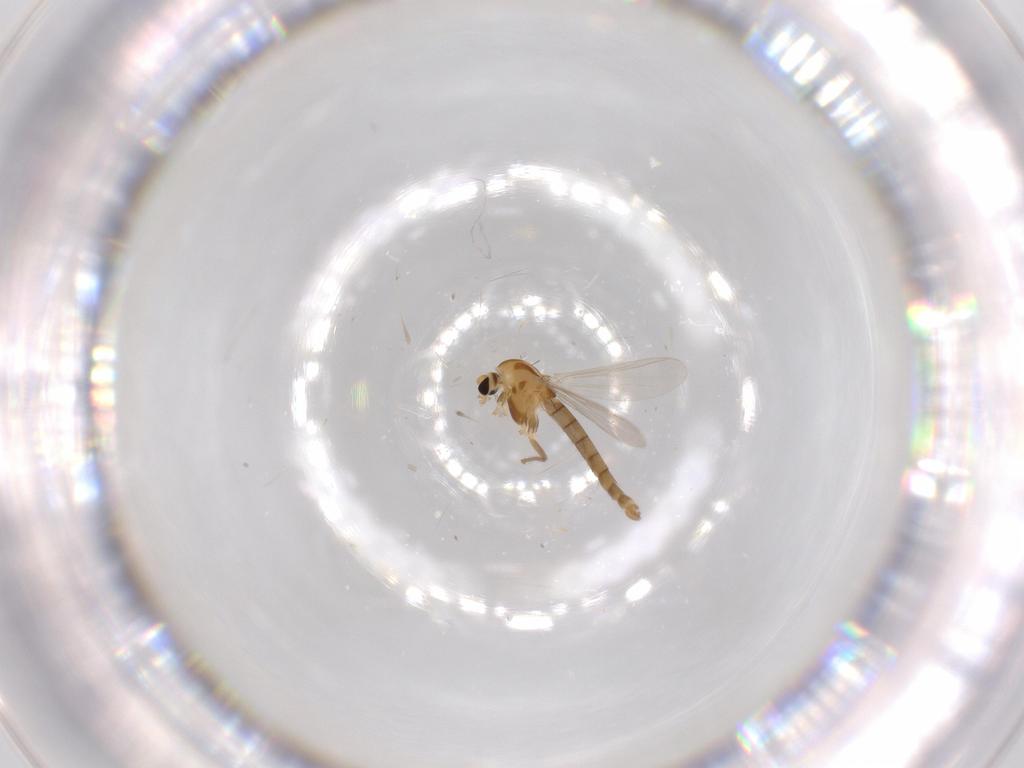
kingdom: Animalia
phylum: Arthropoda
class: Insecta
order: Diptera
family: Chironomidae
